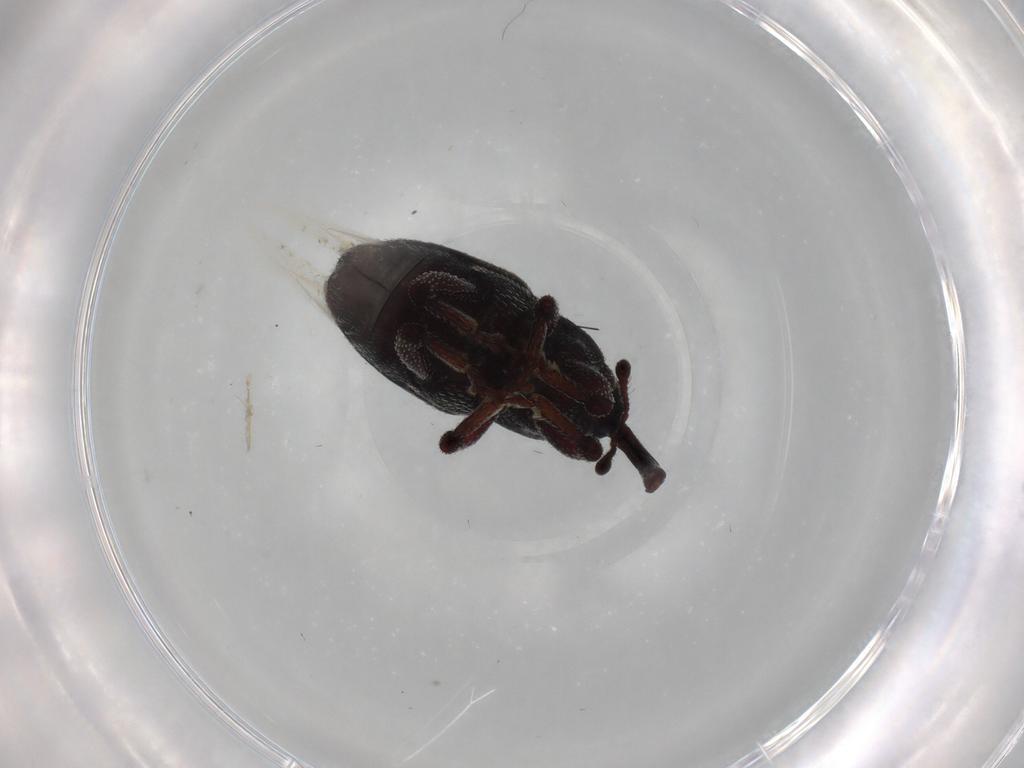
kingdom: Animalia
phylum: Arthropoda
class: Insecta
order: Coleoptera
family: Curculionidae
